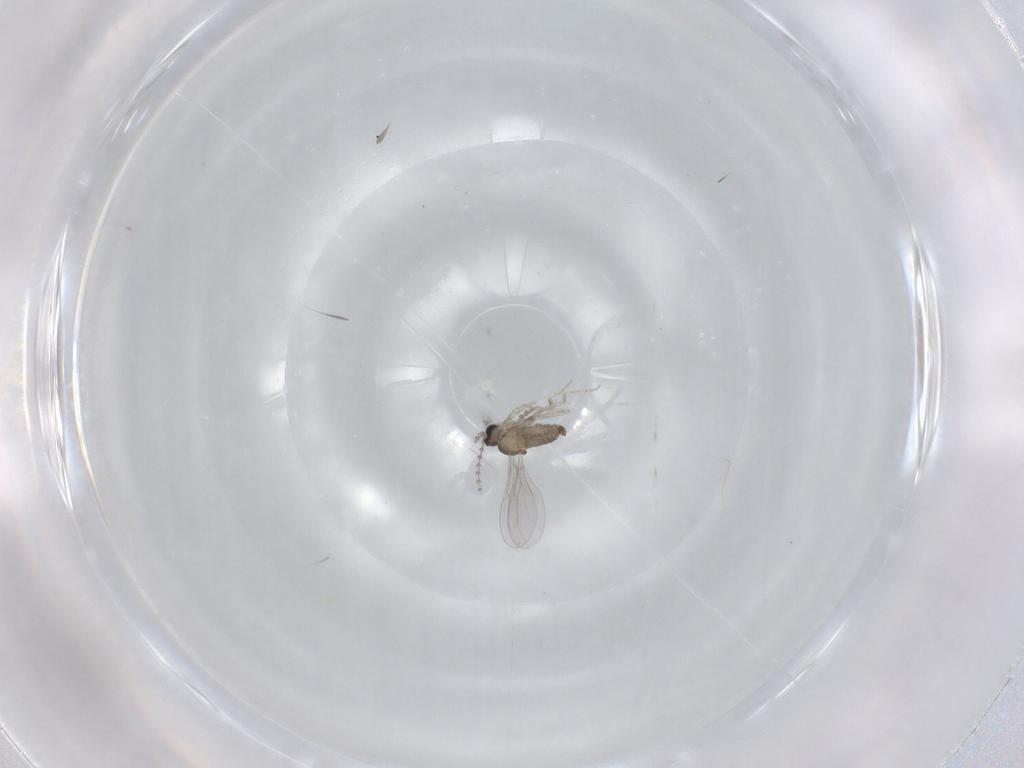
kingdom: Animalia
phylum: Arthropoda
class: Insecta
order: Diptera
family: Cecidomyiidae
